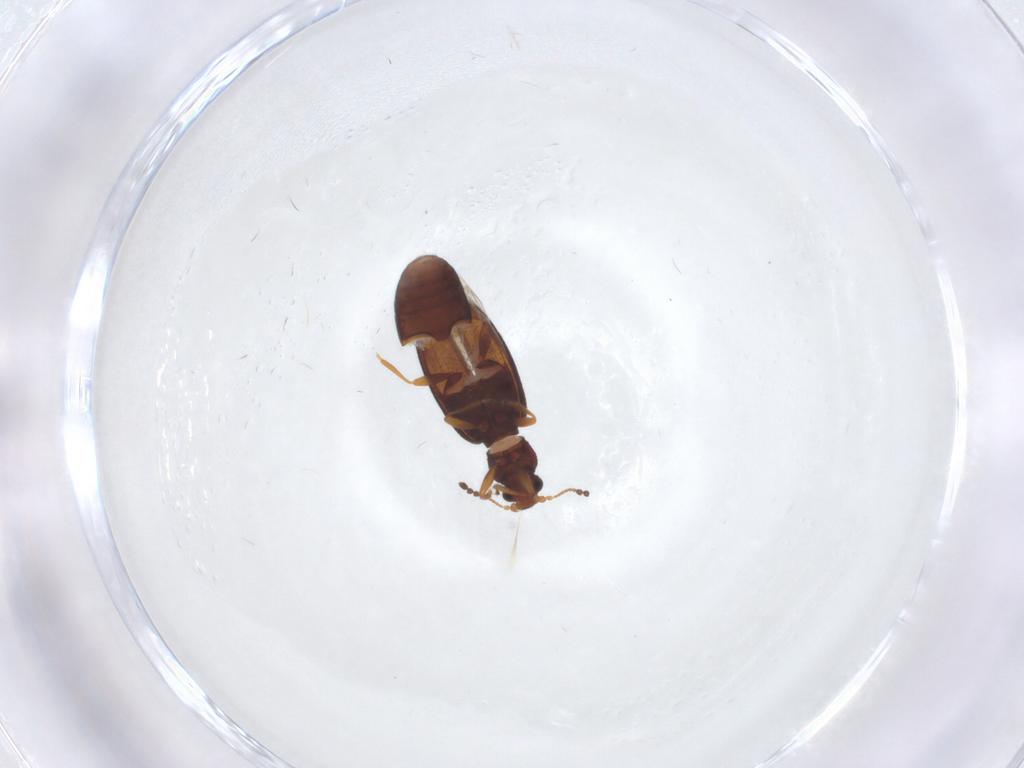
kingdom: Animalia
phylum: Arthropoda
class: Insecta
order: Coleoptera
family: Latridiidae
